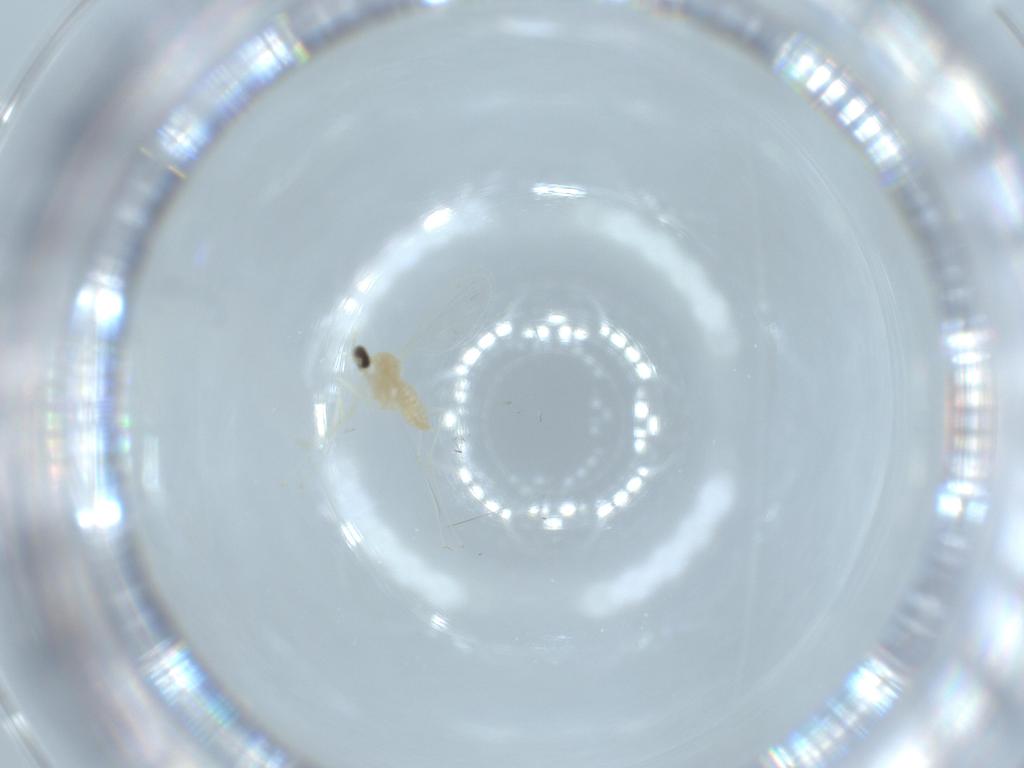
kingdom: Animalia
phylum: Arthropoda
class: Insecta
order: Diptera
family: Cecidomyiidae
